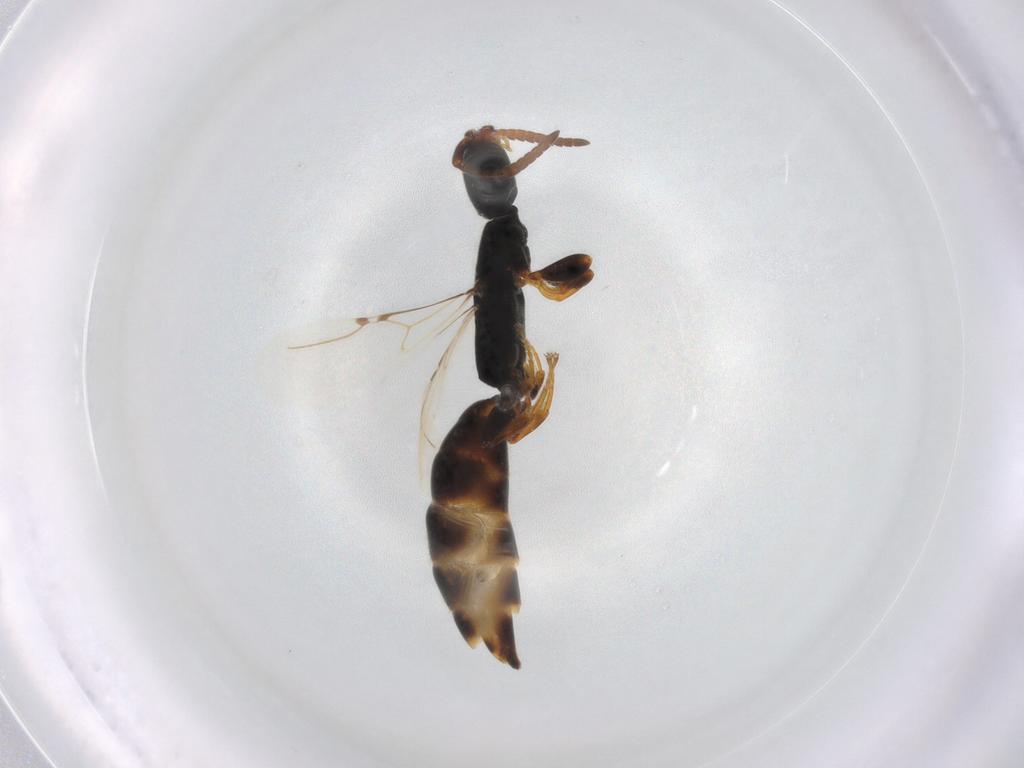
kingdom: Animalia
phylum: Arthropoda
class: Insecta
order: Hymenoptera
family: Bethylidae
